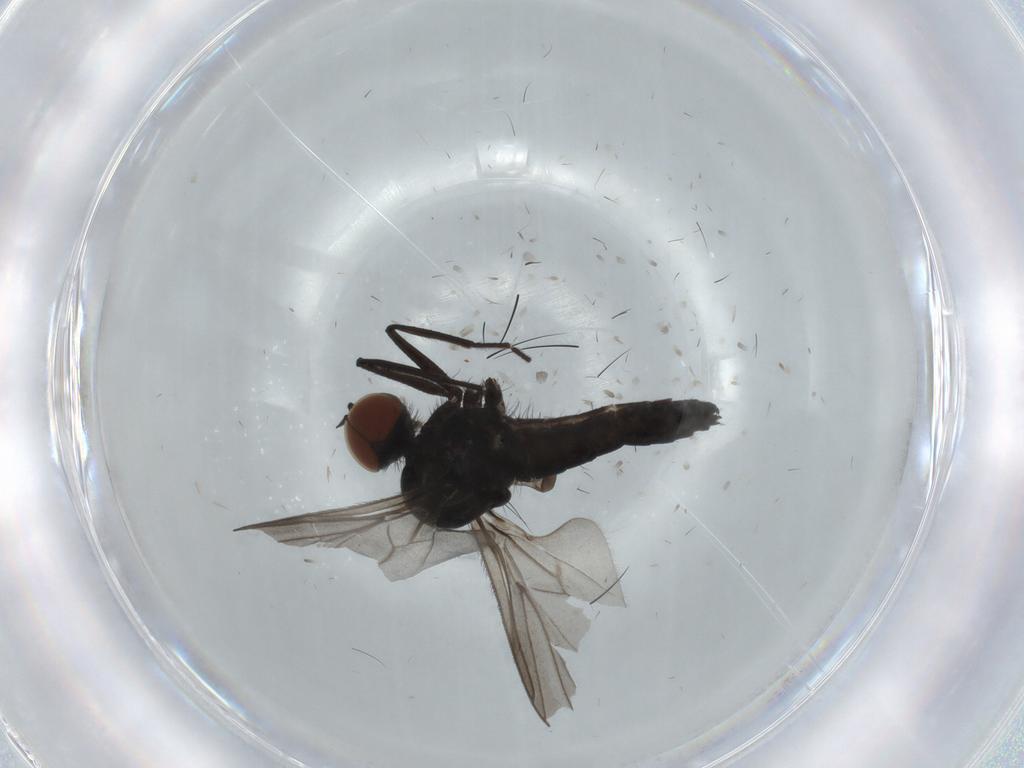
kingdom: Animalia
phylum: Arthropoda
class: Insecta
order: Diptera
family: Hybotidae
